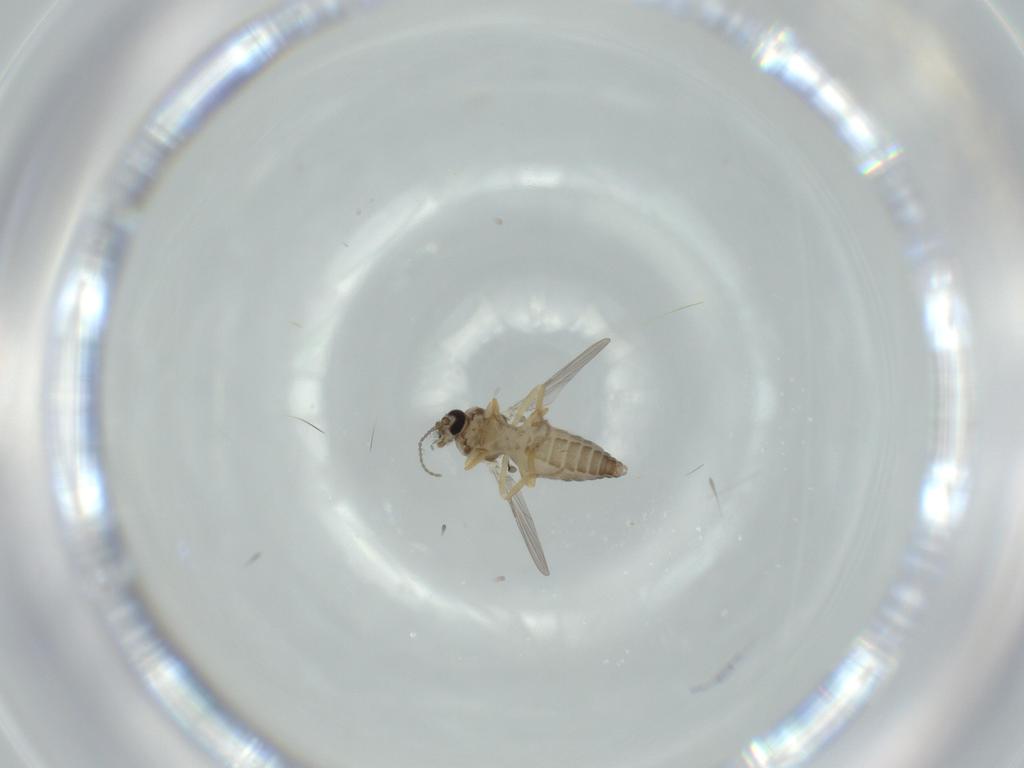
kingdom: Animalia
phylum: Arthropoda
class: Insecta
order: Diptera
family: Ceratopogonidae
